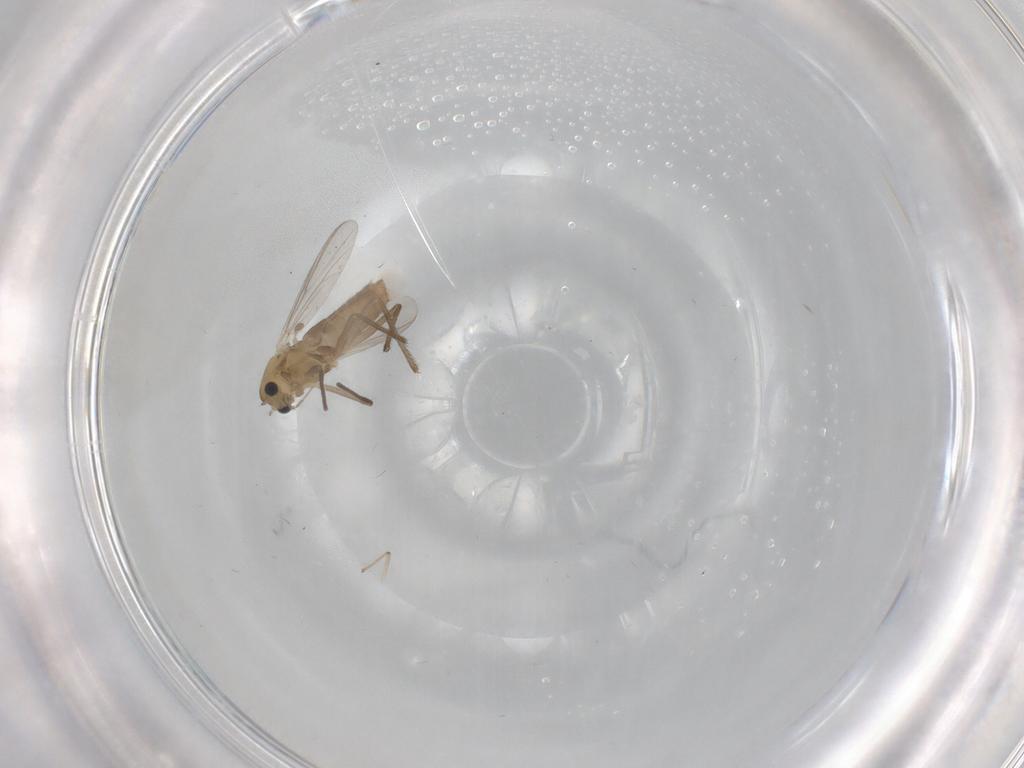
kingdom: Animalia
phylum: Arthropoda
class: Insecta
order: Diptera
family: Chironomidae
